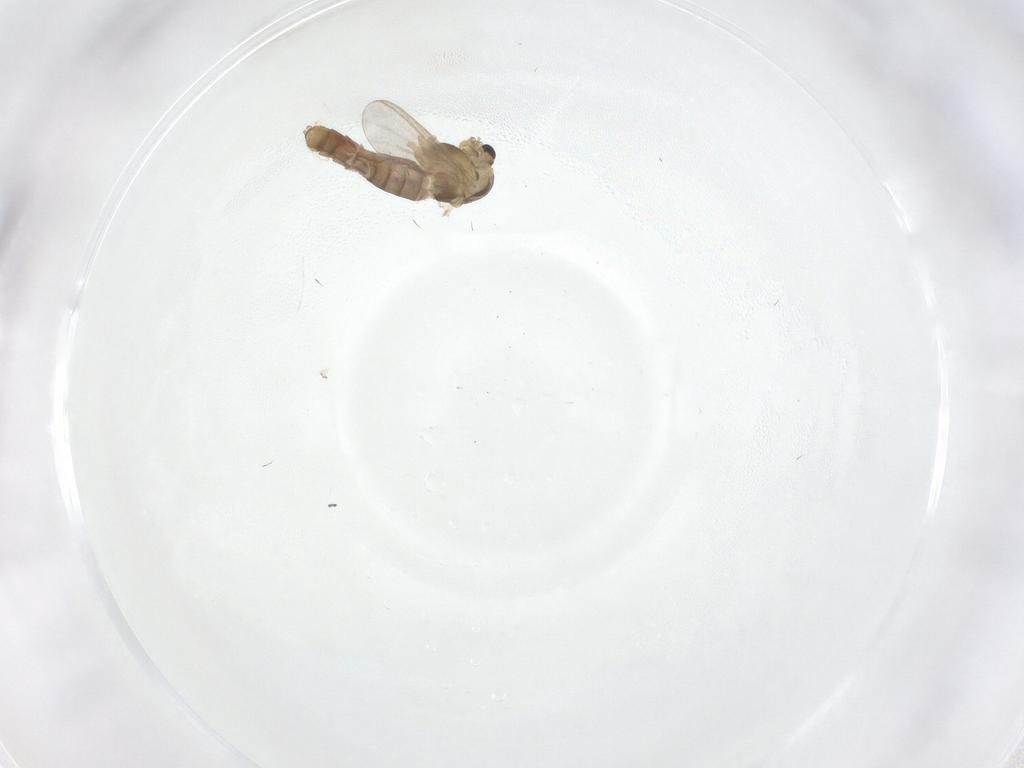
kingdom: Animalia
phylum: Arthropoda
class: Insecta
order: Diptera
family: Chironomidae
